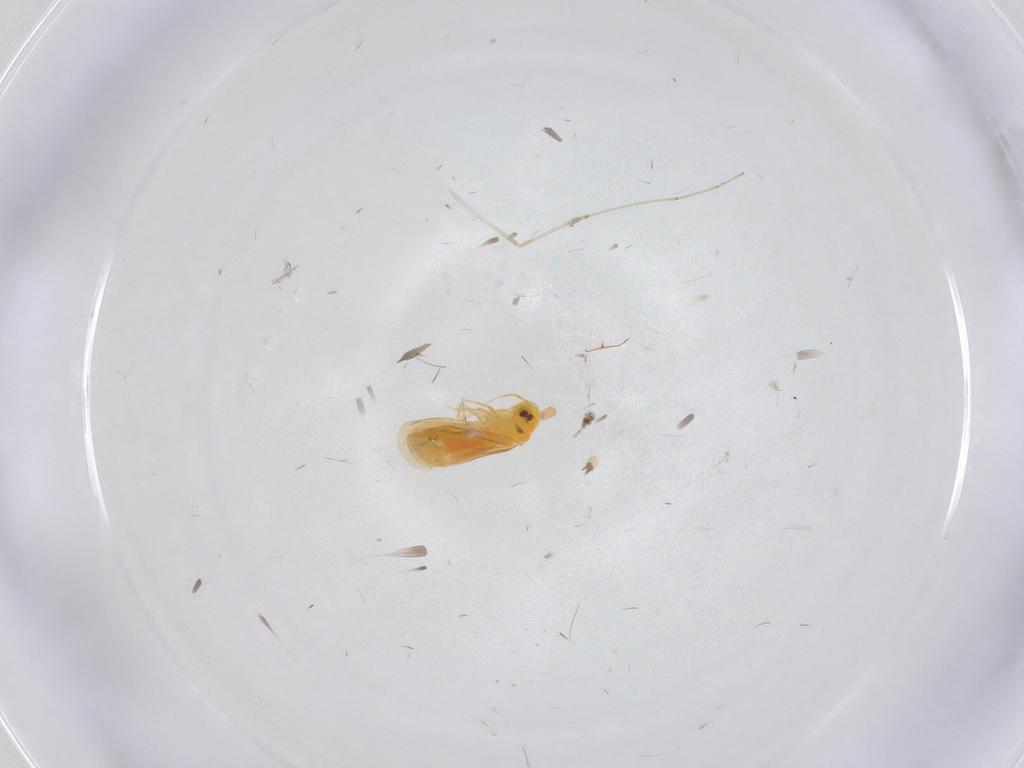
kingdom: Animalia
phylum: Arthropoda
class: Insecta
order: Hemiptera
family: Aleyrodidae
